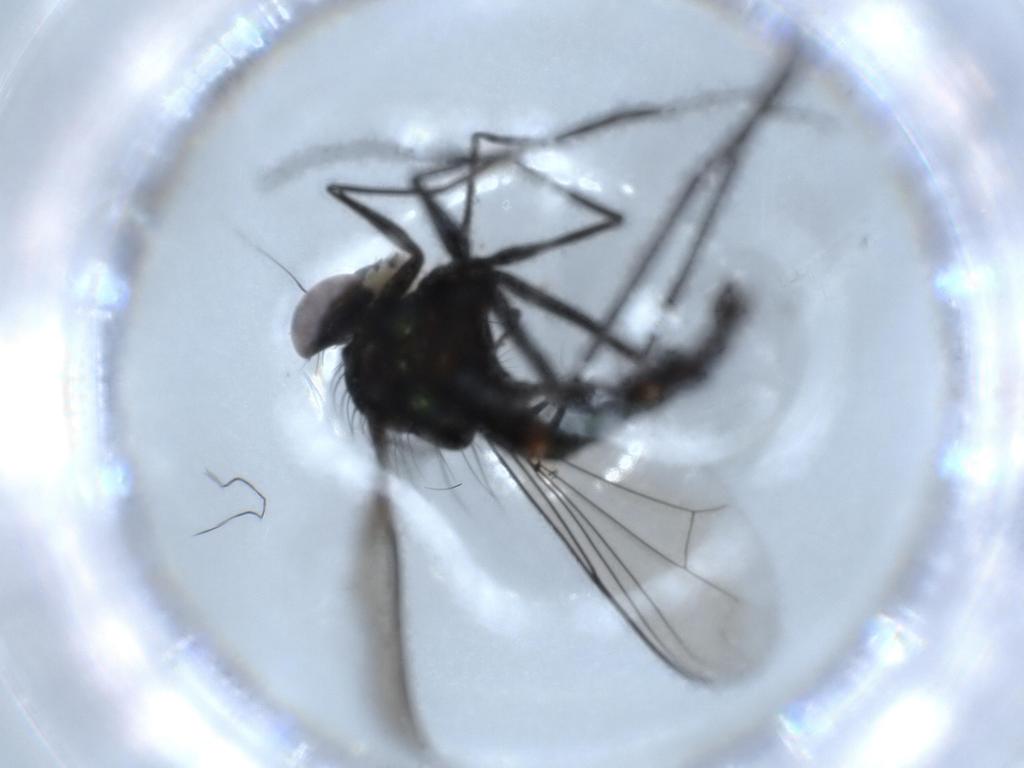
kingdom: Animalia
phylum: Arthropoda
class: Insecta
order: Diptera
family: Dolichopodidae
